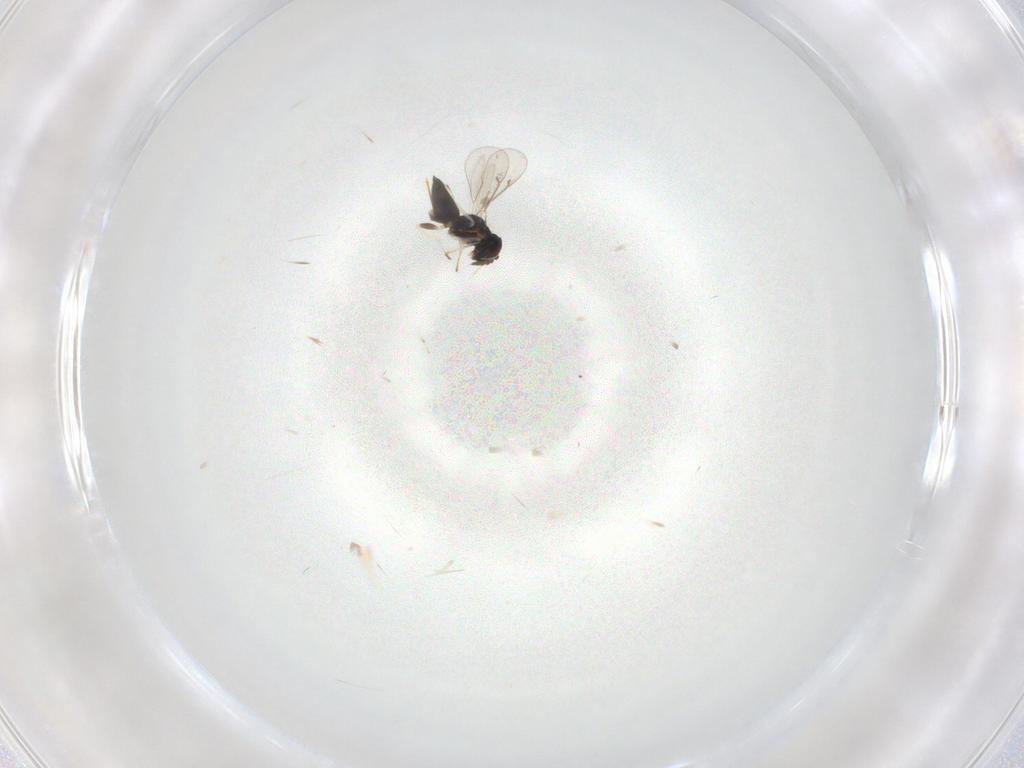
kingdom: Animalia
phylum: Arthropoda
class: Insecta
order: Hymenoptera
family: Eulophidae
